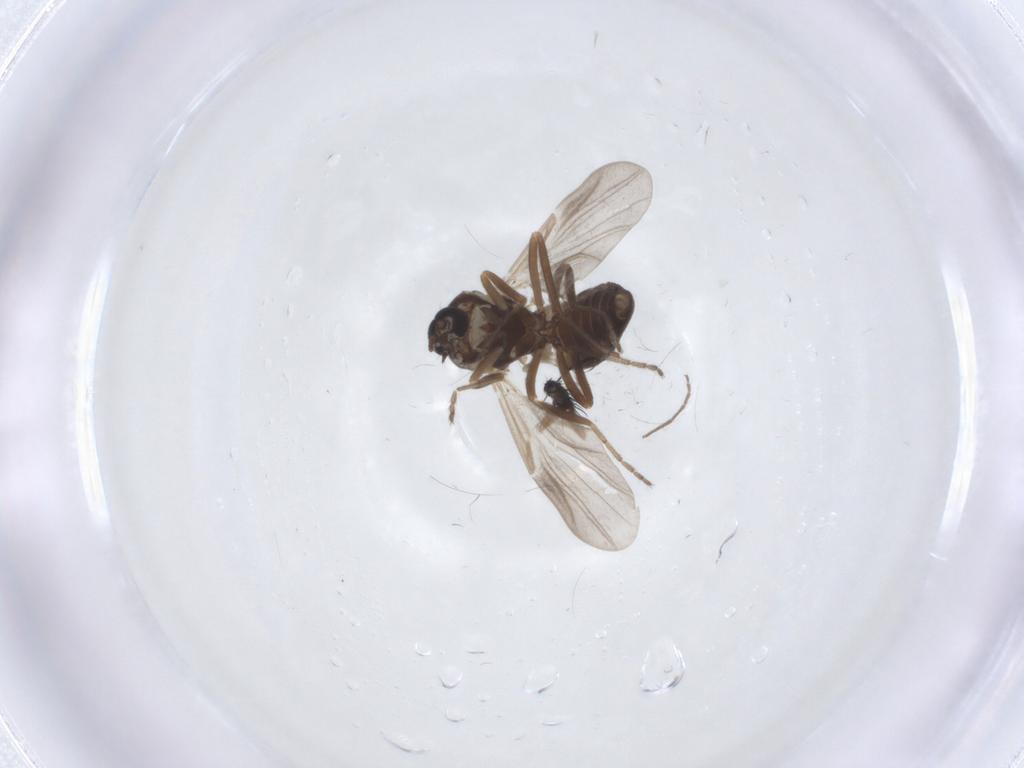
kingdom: Animalia
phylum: Arthropoda
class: Insecta
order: Diptera
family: Ceratopogonidae
